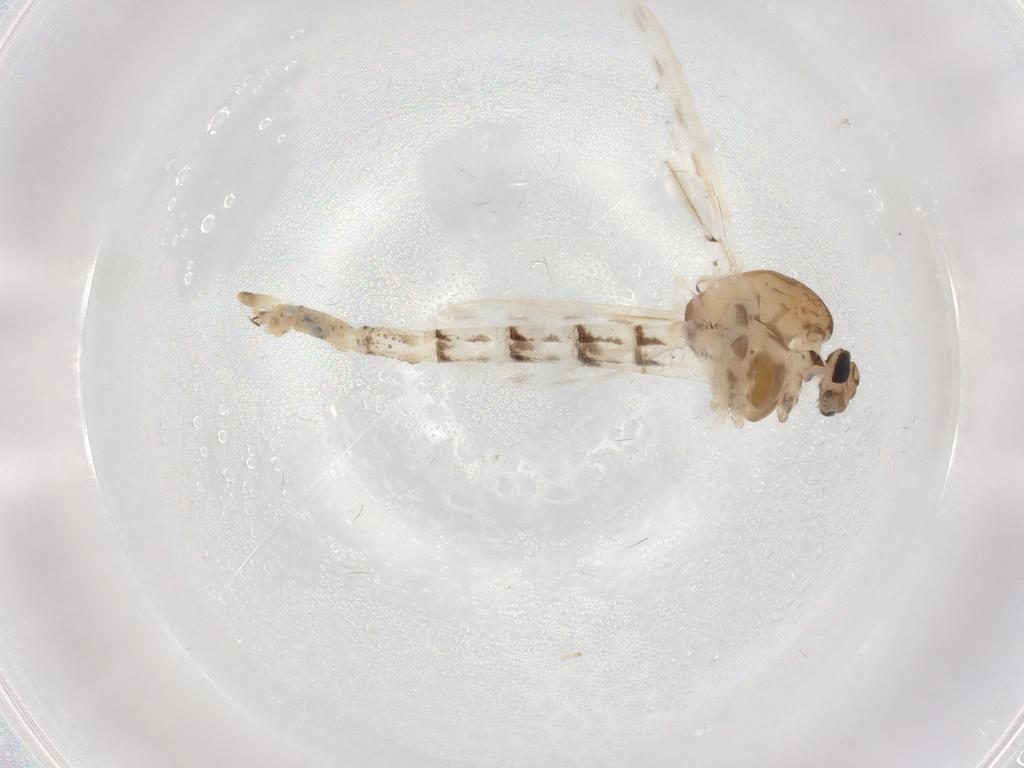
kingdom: Animalia
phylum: Arthropoda
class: Insecta
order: Diptera
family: Chaoboridae
